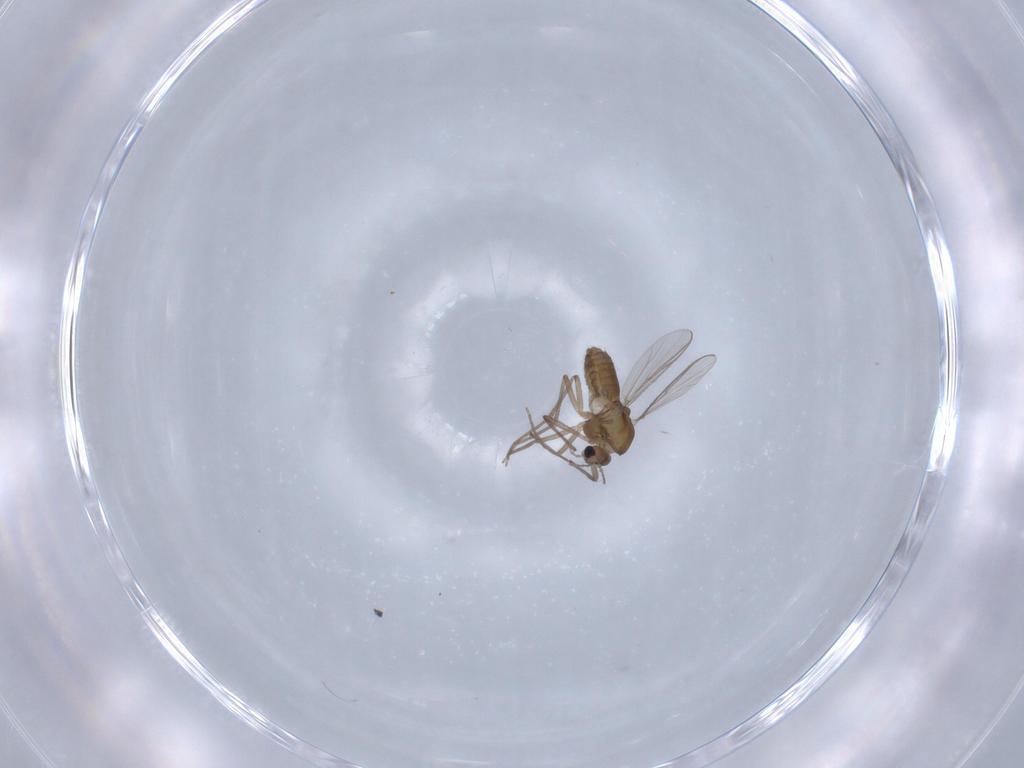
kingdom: Animalia
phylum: Arthropoda
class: Insecta
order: Diptera
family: Chironomidae
